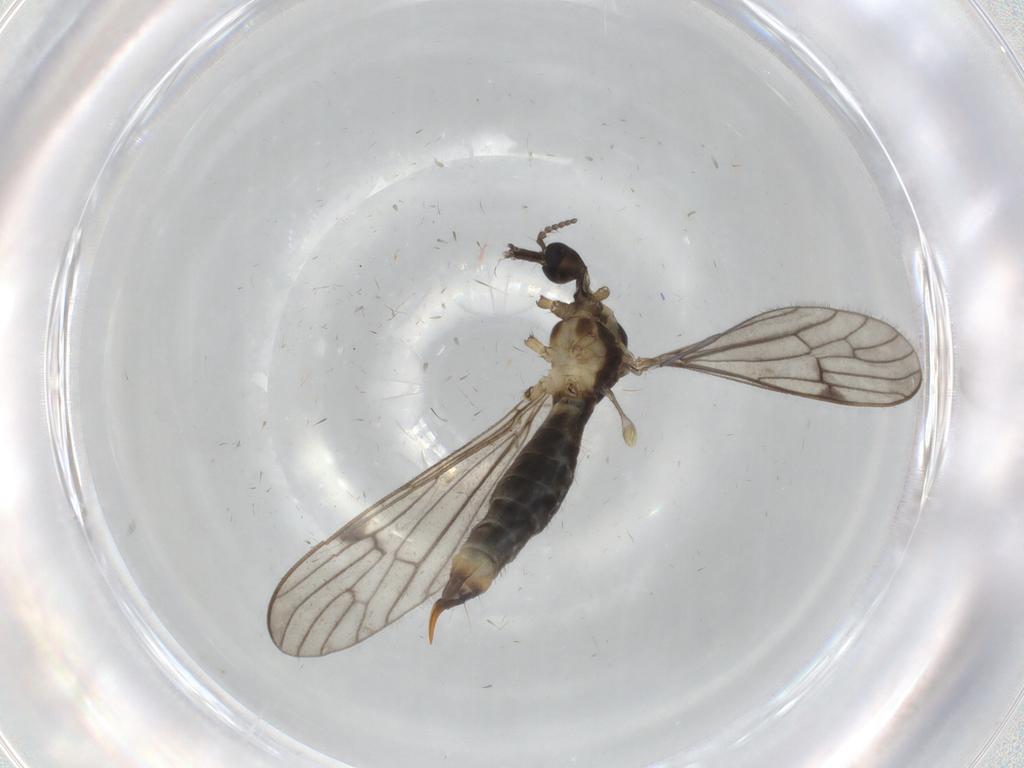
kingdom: Animalia
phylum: Arthropoda
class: Insecta
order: Diptera
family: Limoniidae
